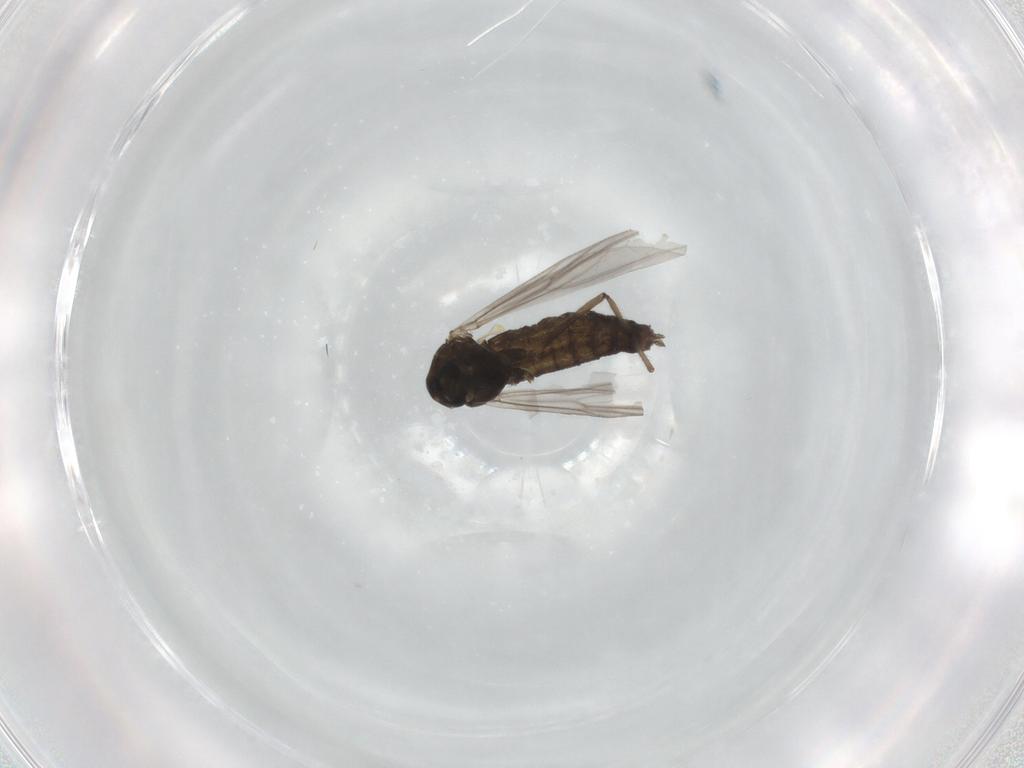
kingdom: Animalia
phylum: Arthropoda
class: Insecta
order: Diptera
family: Chironomidae
